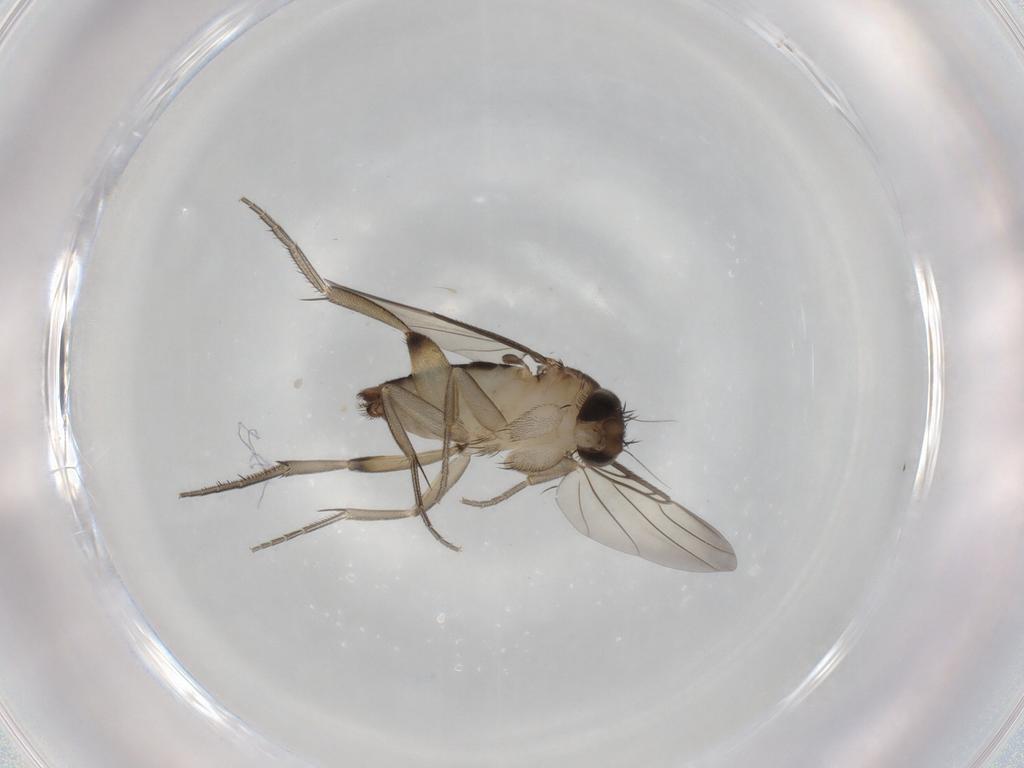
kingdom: Animalia
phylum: Arthropoda
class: Insecta
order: Diptera
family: Phoridae
